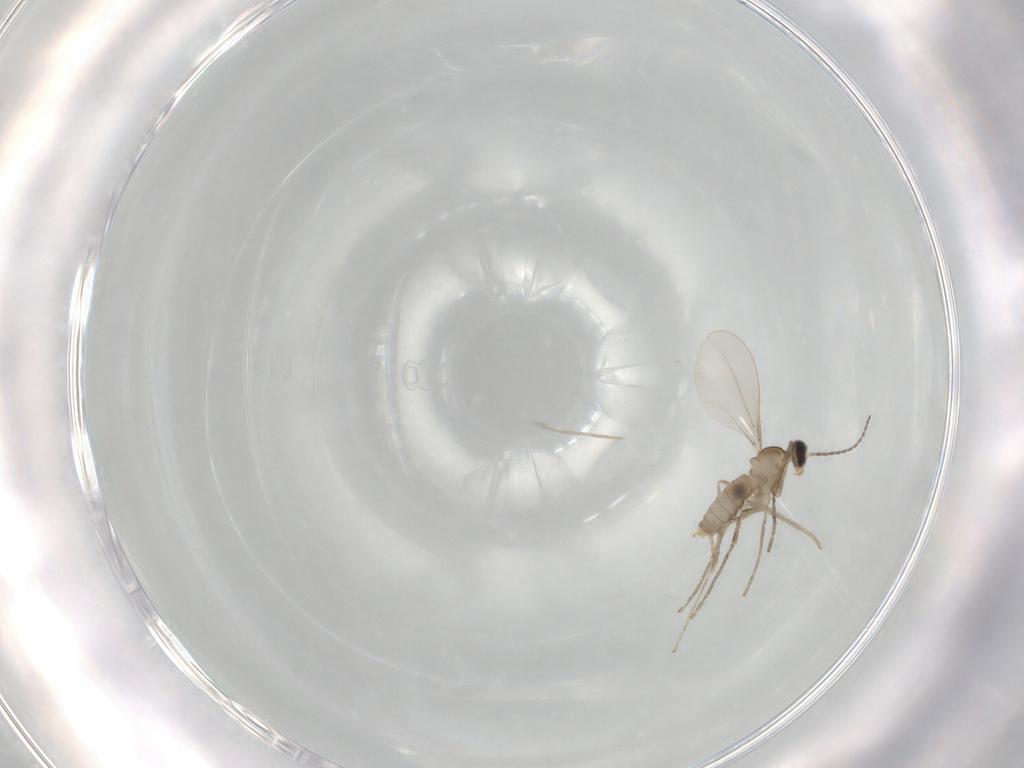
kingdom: Animalia
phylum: Arthropoda
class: Insecta
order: Diptera
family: Cecidomyiidae
